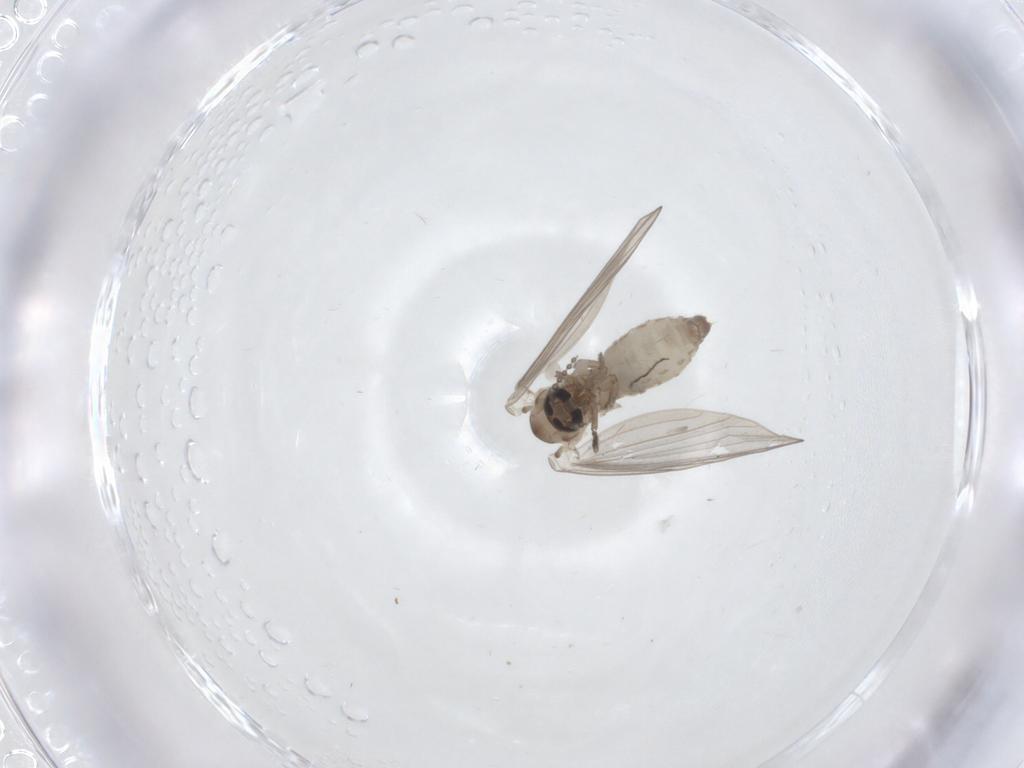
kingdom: Animalia
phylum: Arthropoda
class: Insecta
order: Diptera
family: Psychodidae
